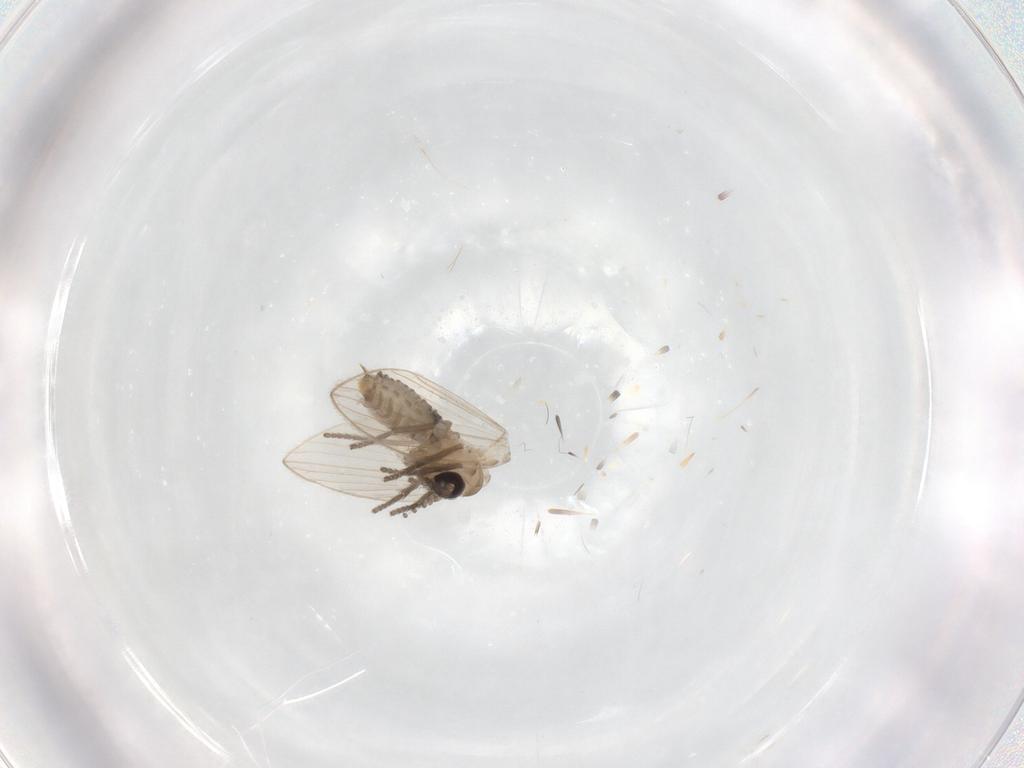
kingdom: Animalia
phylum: Arthropoda
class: Insecta
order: Diptera
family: Psychodidae
